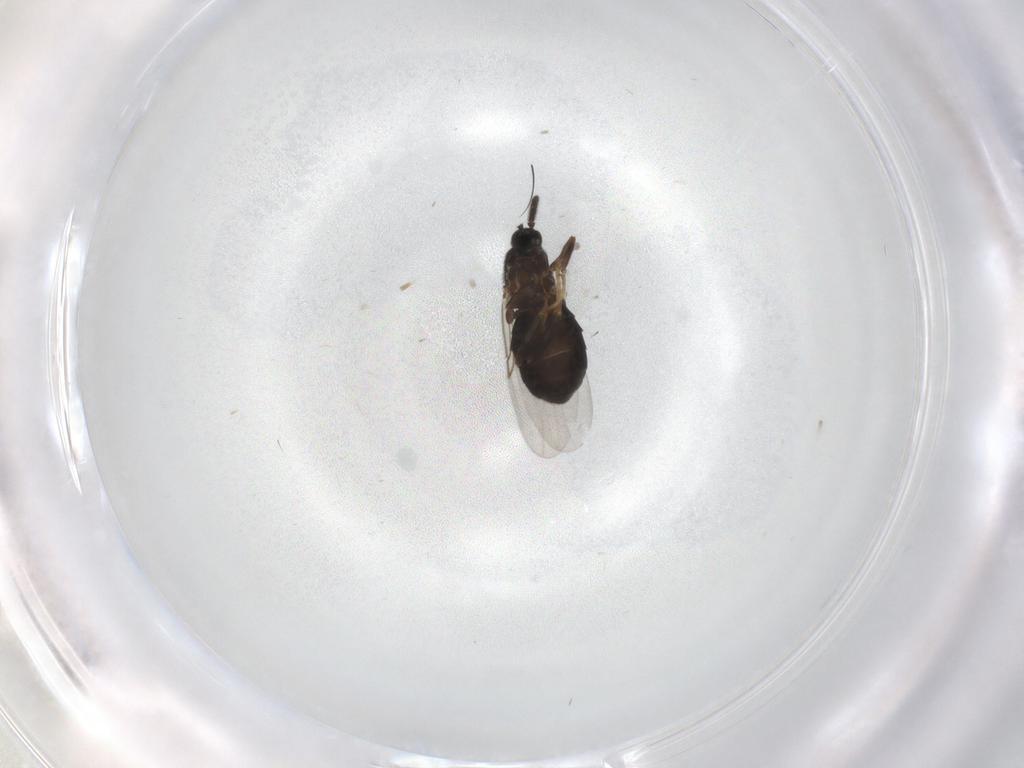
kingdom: Animalia
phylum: Arthropoda
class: Insecta
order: Diptera
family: Scatopsidae
